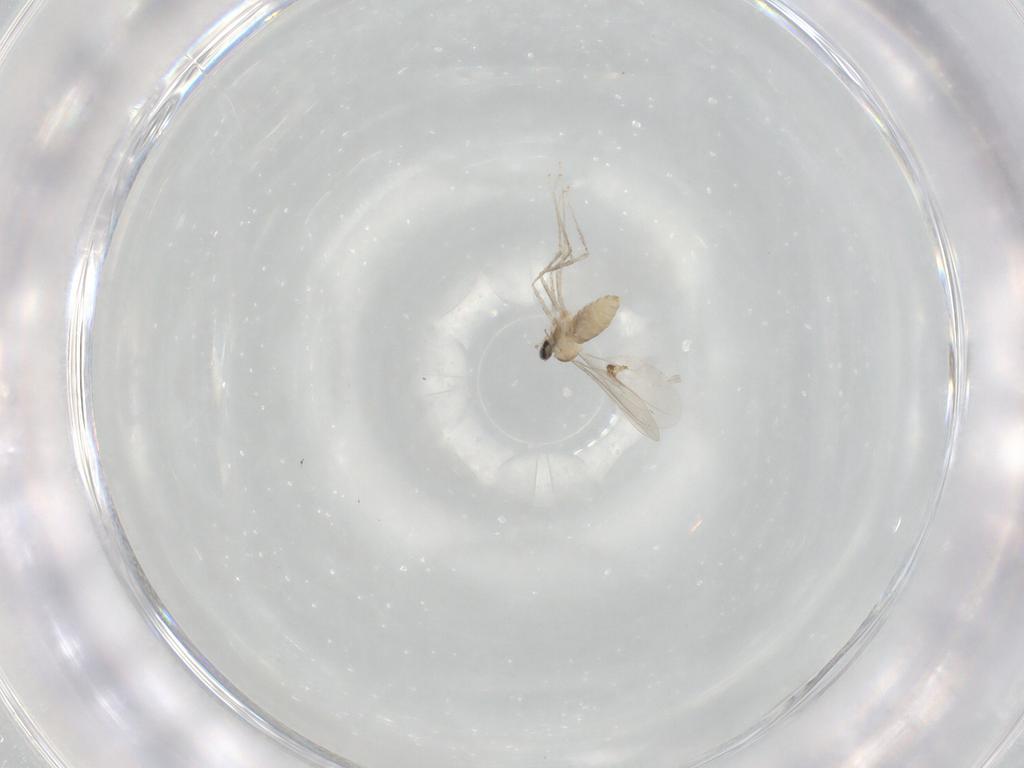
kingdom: Animalia
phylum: Arthropoda
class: Insecta
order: Diptera
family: Cecidomyiidae
